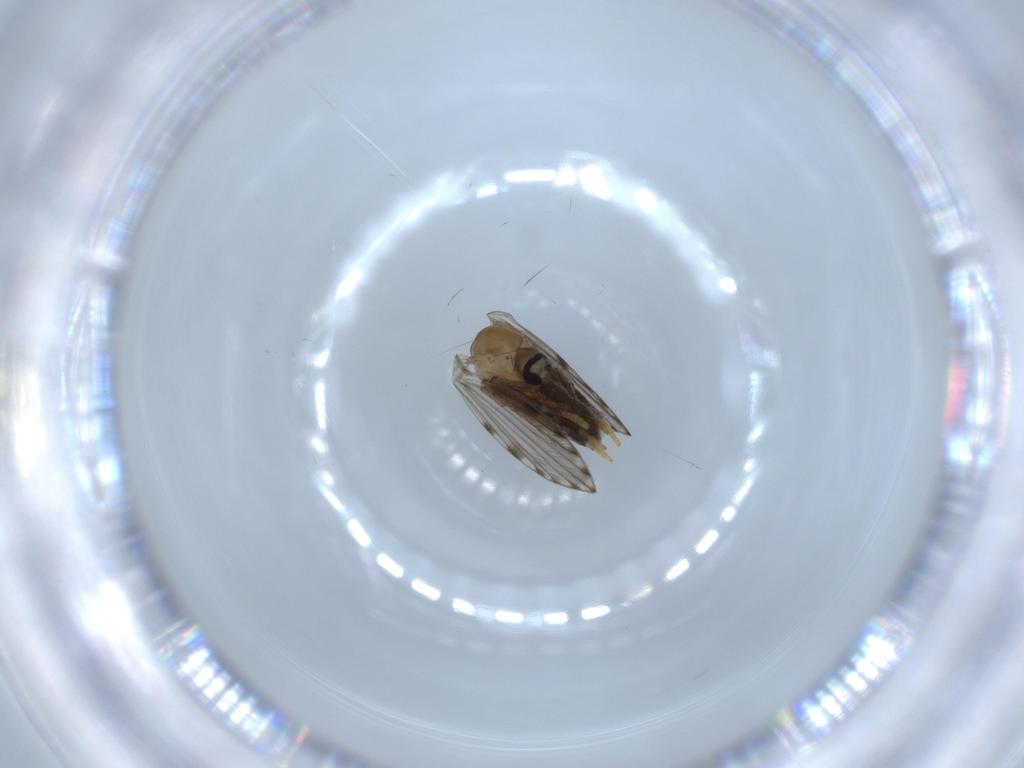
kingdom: Animalia
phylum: Arthropoda
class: Insecta
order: Diptera
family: Psychodidae
